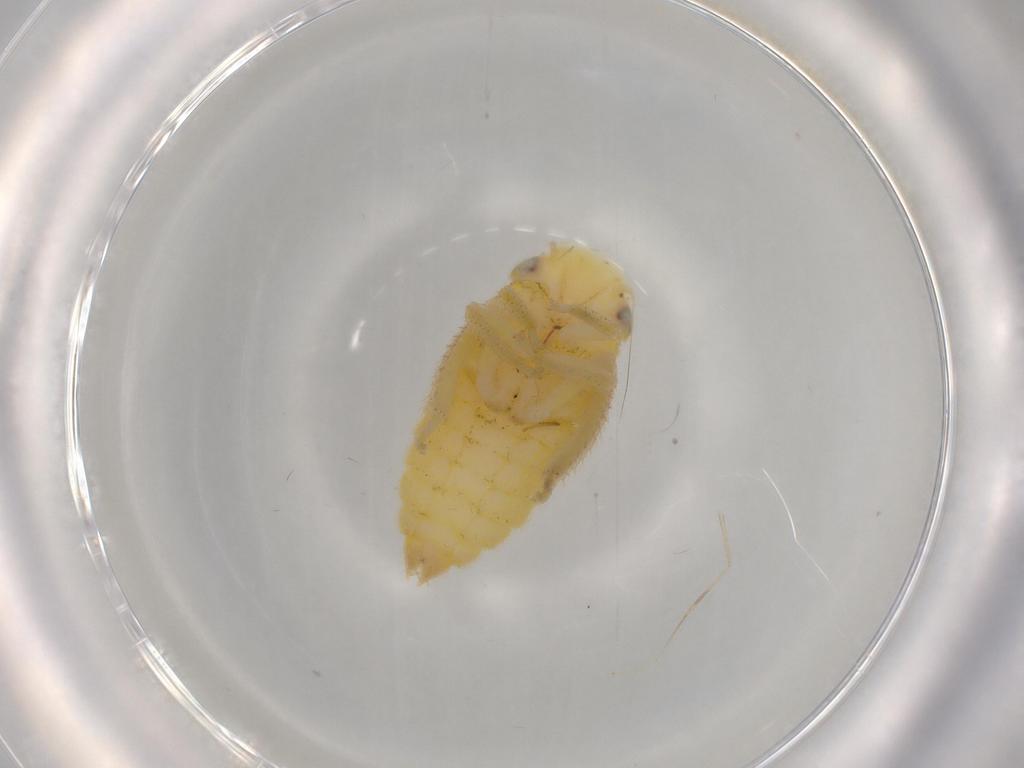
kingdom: Animalia
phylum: Arthropoda
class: Insecta
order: Hemiptera
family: Cicadellidae
